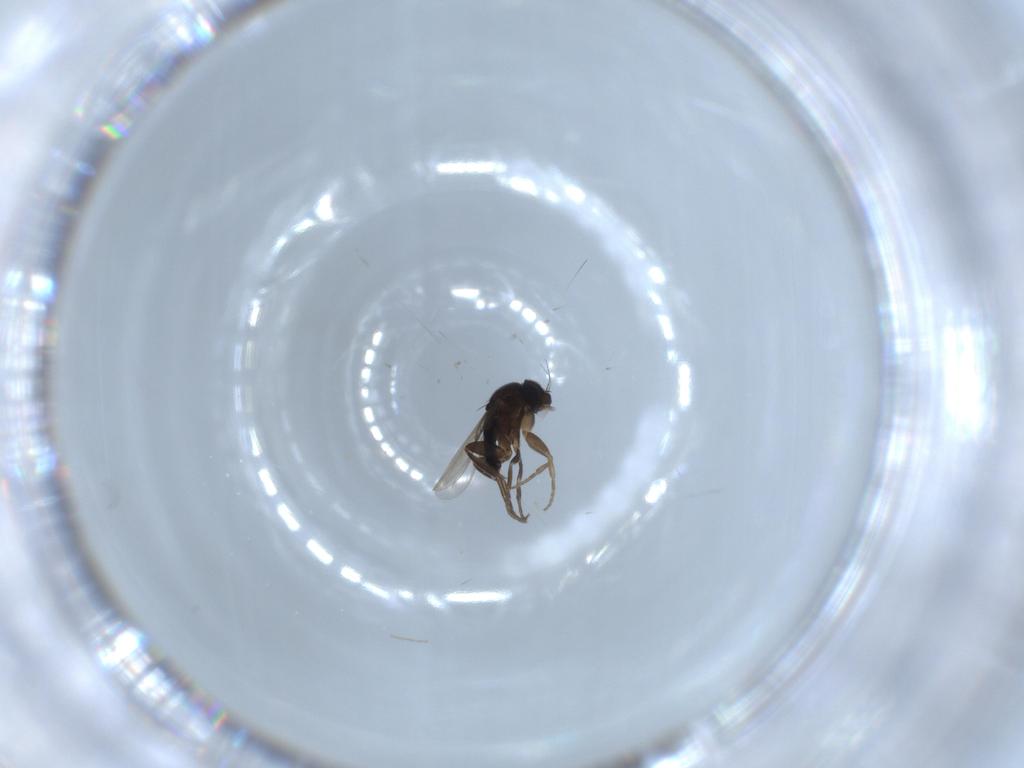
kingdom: Animalia
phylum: Arthropoda
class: Insecta
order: Diptera
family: Phoridae
